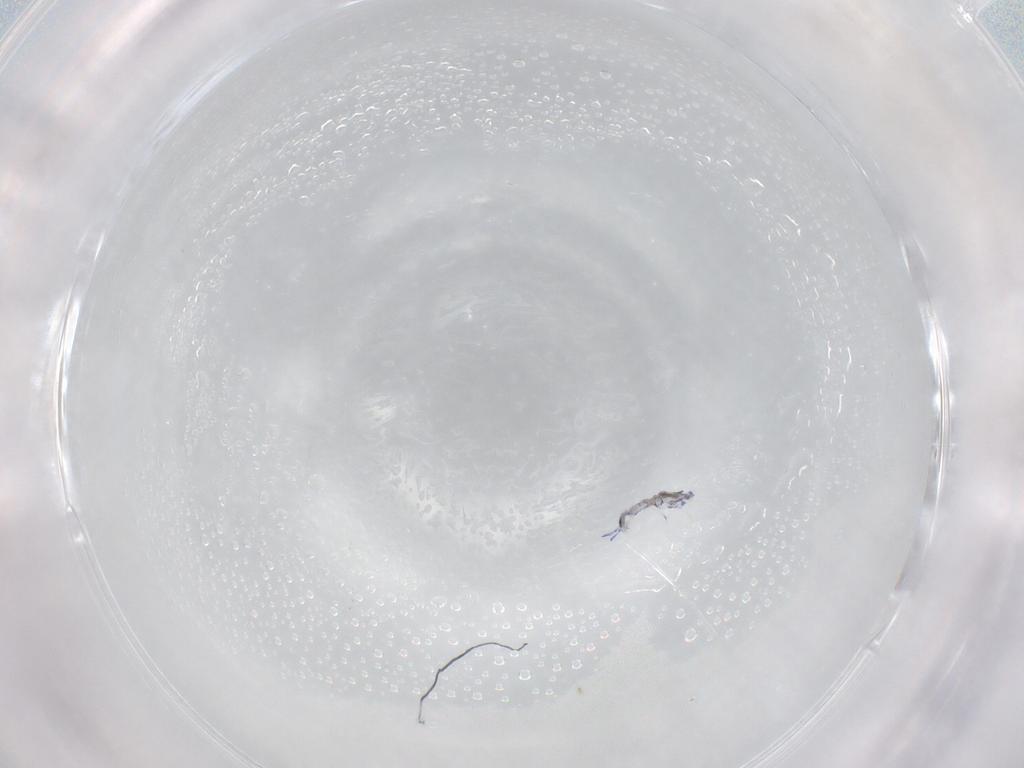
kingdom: Animalia
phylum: Arthropoda
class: Collembola
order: Entomobryomorpha
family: Entomobryidae
